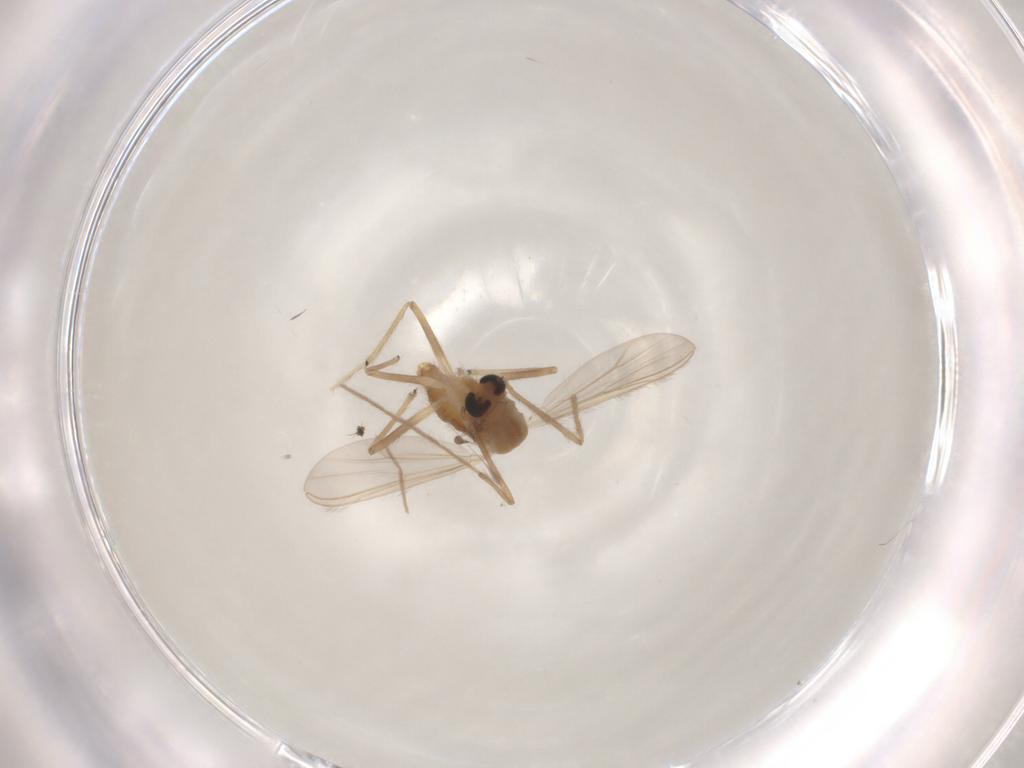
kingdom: Animalia
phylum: Arthropoda
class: Insecta
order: Diptera
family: Chironomidae
